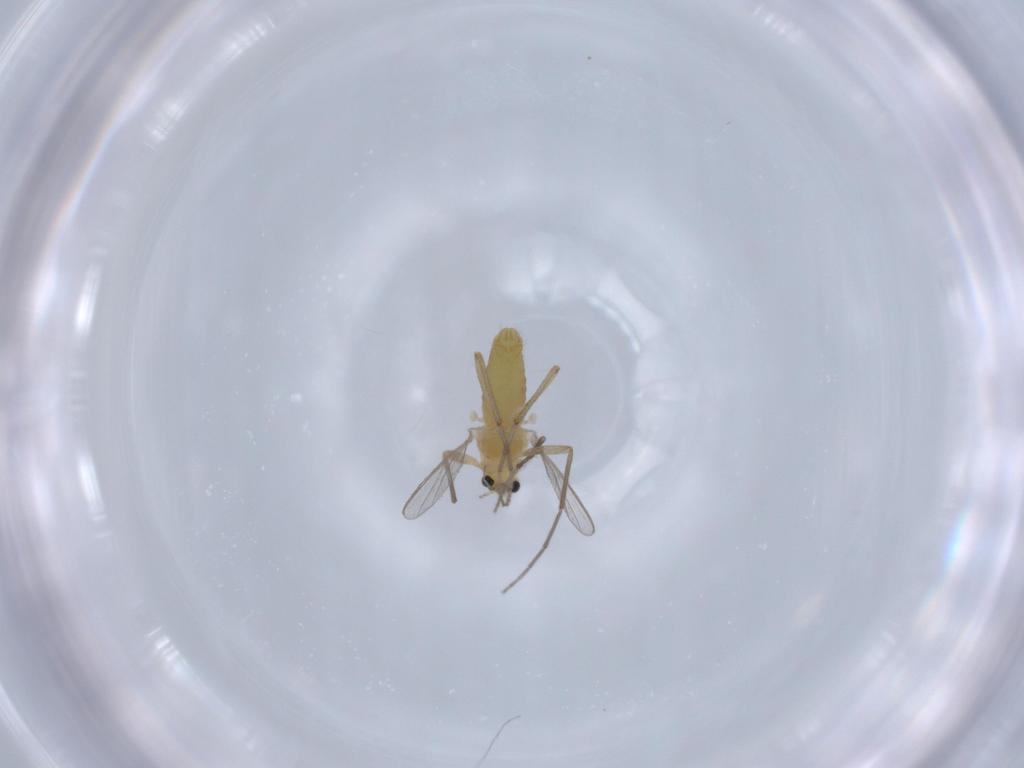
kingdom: Animalia
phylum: Arthropoda
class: Insecta
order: Diptera
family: Chironomidae
